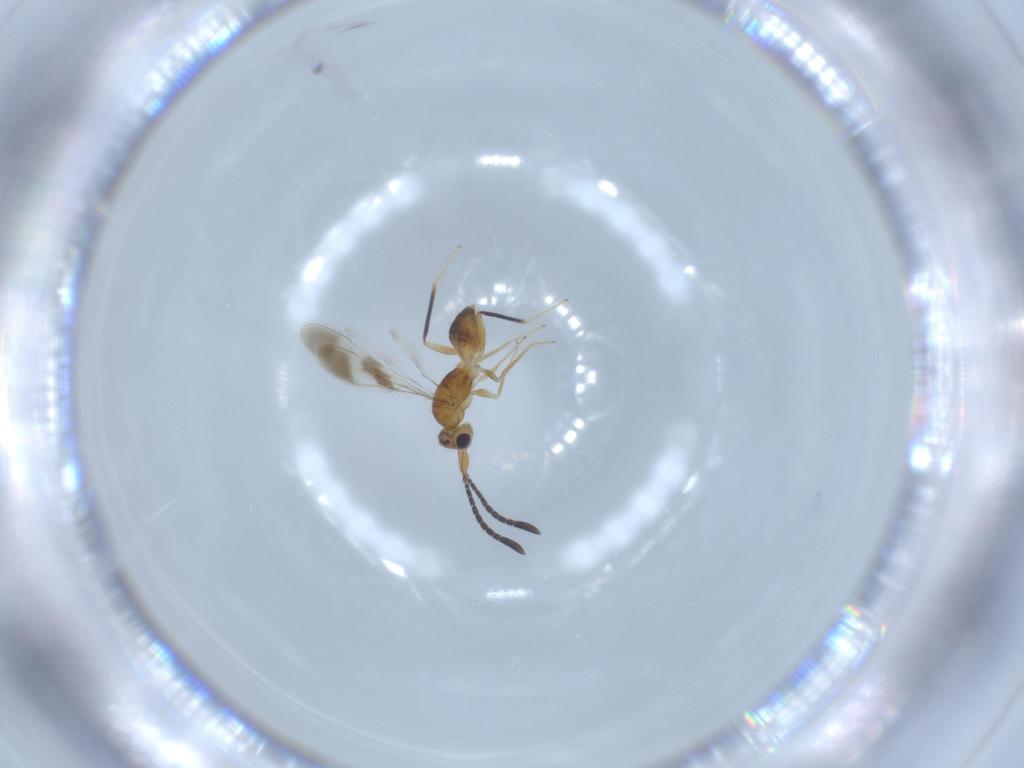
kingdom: Animalia
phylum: Arthropoda
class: Insecta
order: Hymenoptera
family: Mymaridae
